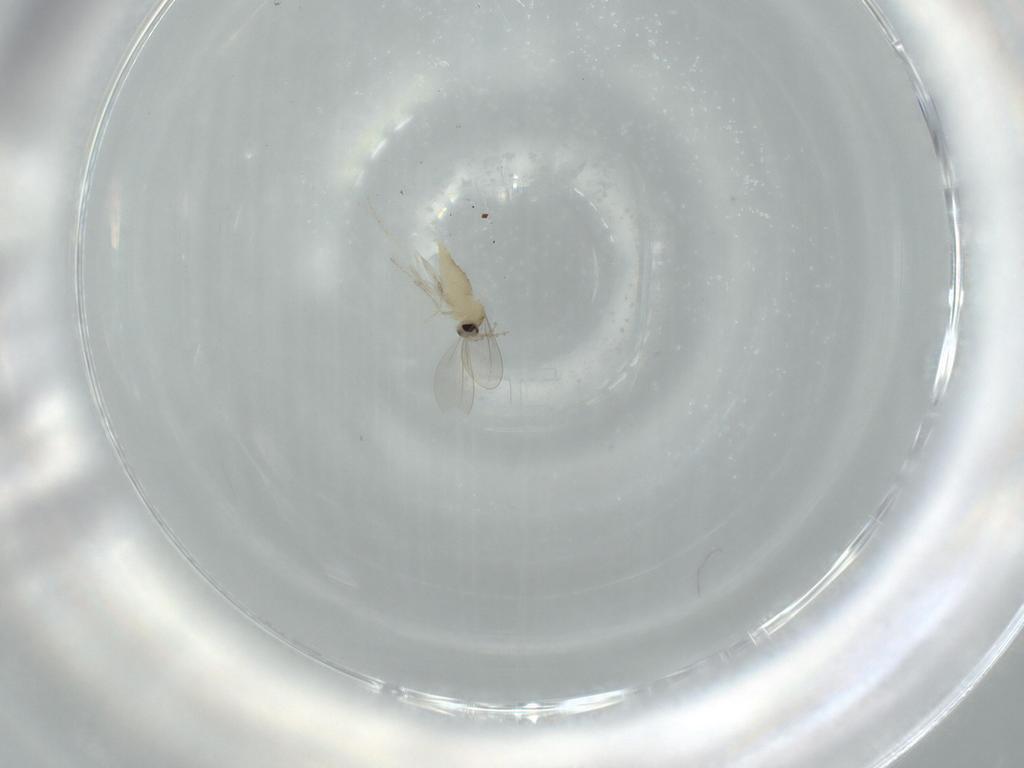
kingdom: Animalia
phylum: Arthropoda
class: Insecta
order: Diptera
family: Cecidomyiidae
